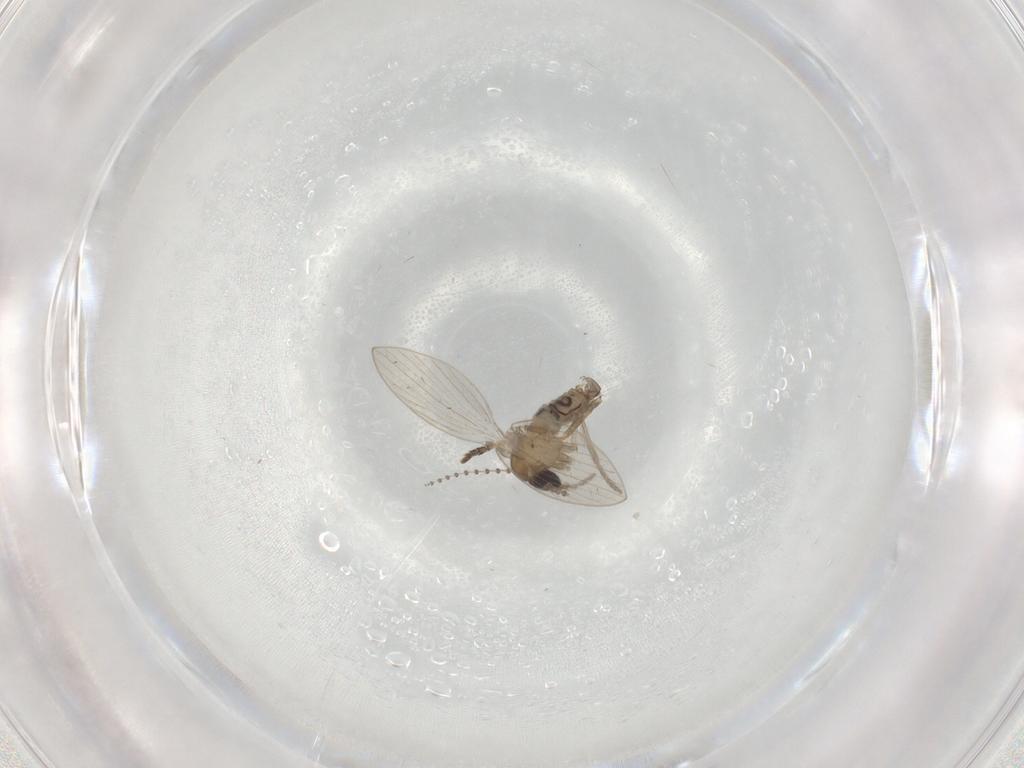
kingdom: Animalia
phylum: Arthropoda
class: Insecta
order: Diptera
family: Psychodidae
